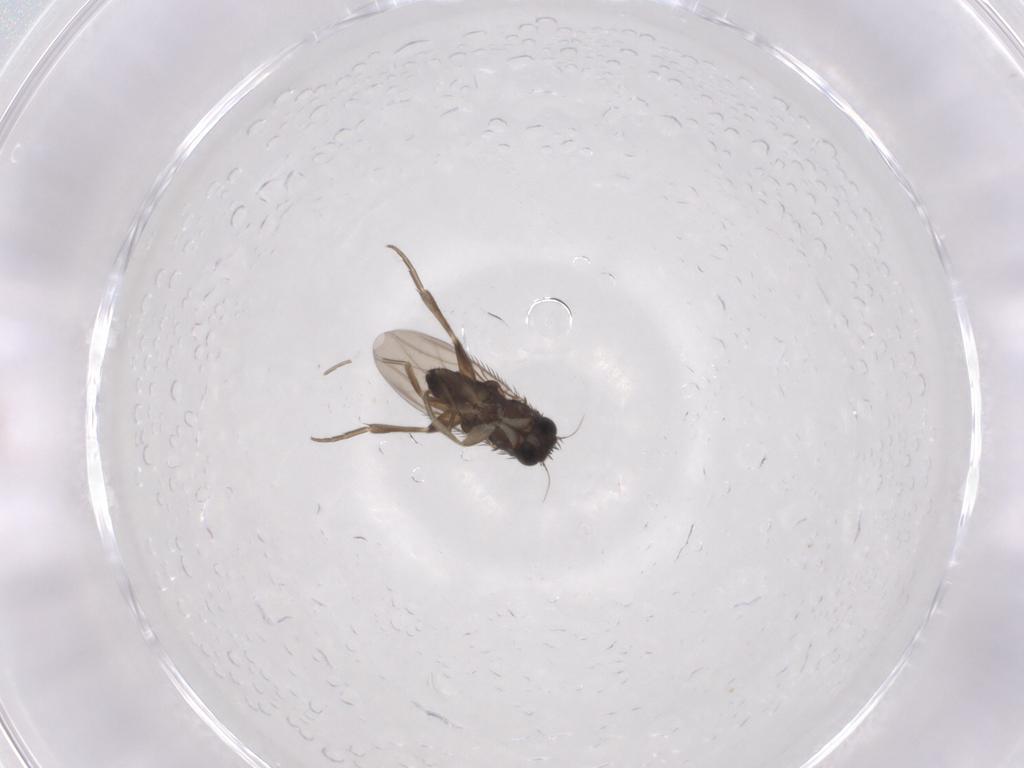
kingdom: Animalia
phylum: Arthropoda
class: Insecta
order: Diptera
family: Phoridae
